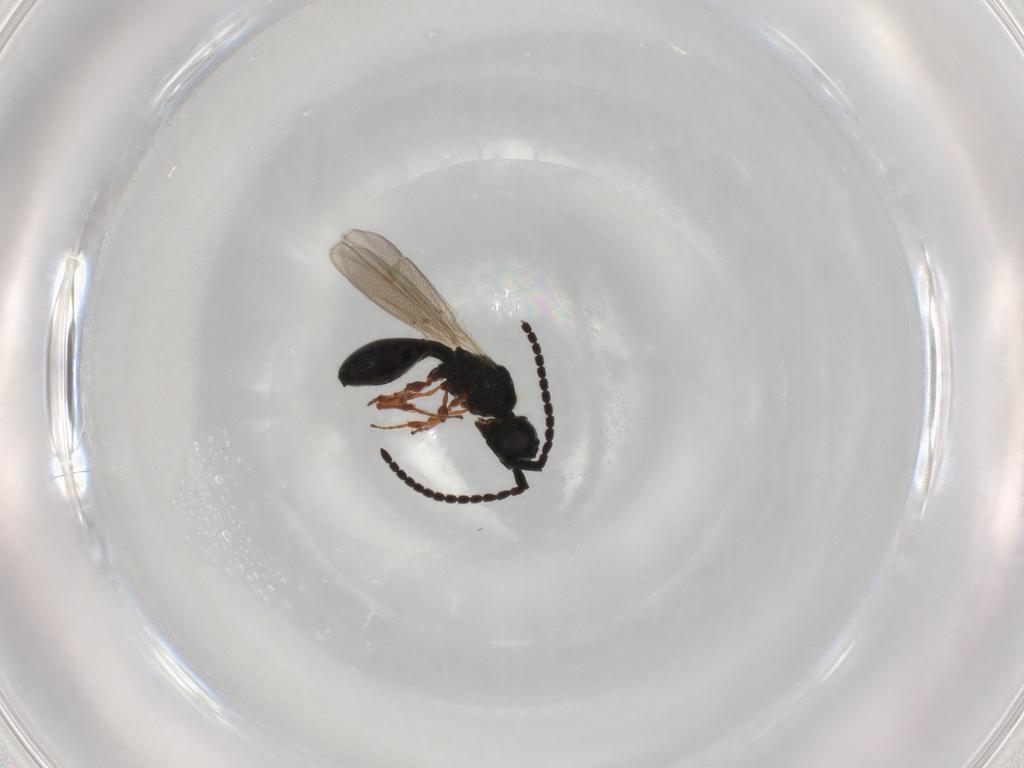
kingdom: Animalia
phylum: Arthropoda
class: Insecta
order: Hymenoptera
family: Diapriidae
